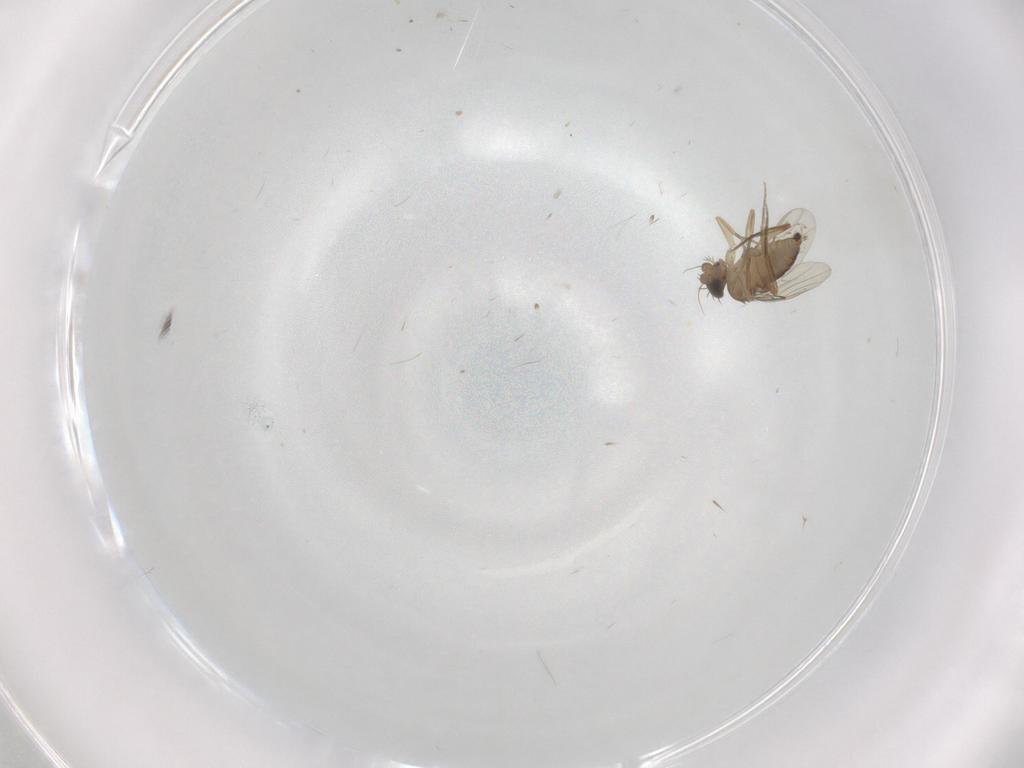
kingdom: Animalia
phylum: Arthropoda
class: Insecta
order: Diptera
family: Phoridae
